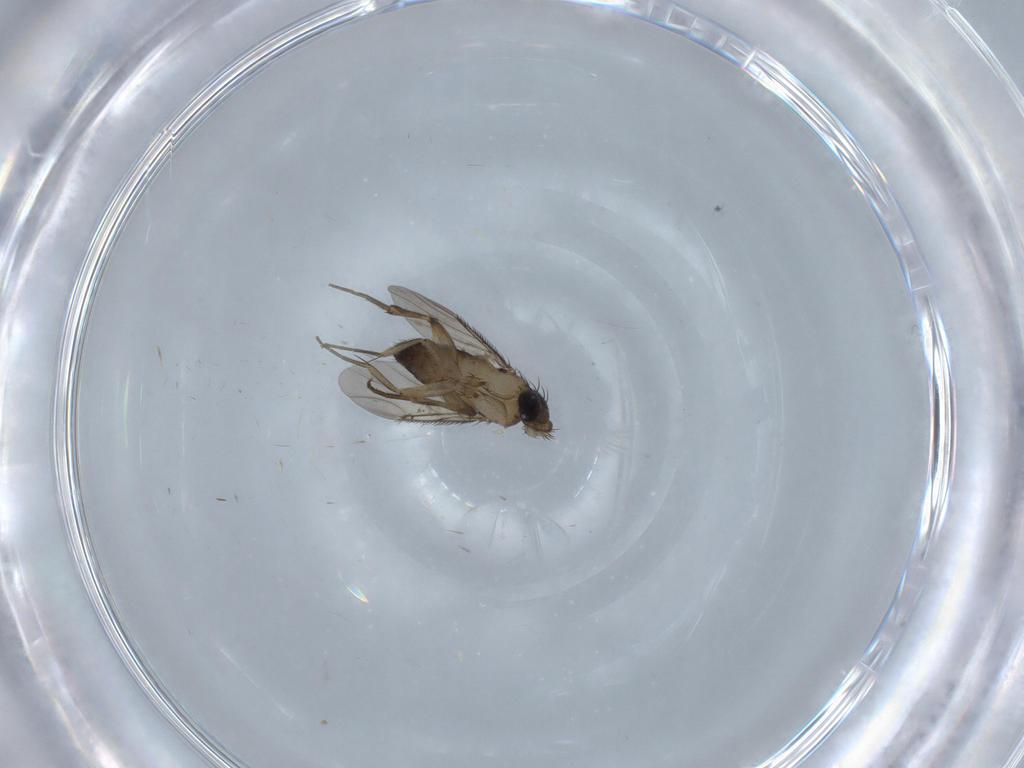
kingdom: Animalia
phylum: Arthropoda
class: Insecta
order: Diptera
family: Phoridae
